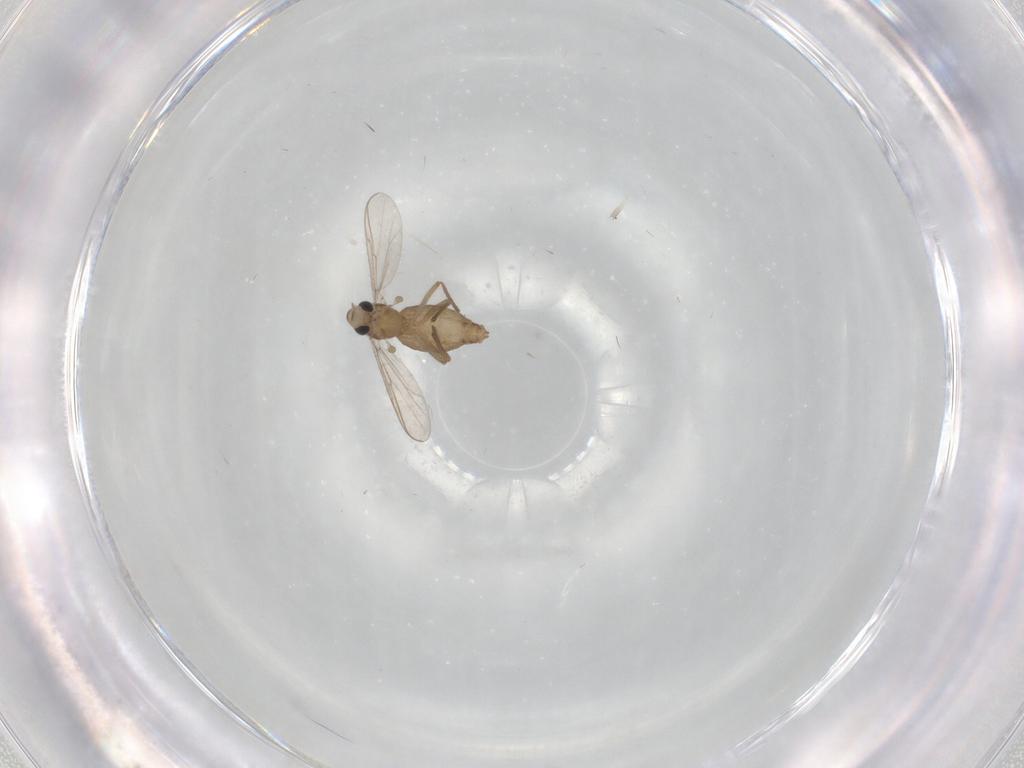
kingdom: Animalia
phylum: Arthropoda
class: Insecta
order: Diptera
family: Chironomidae
